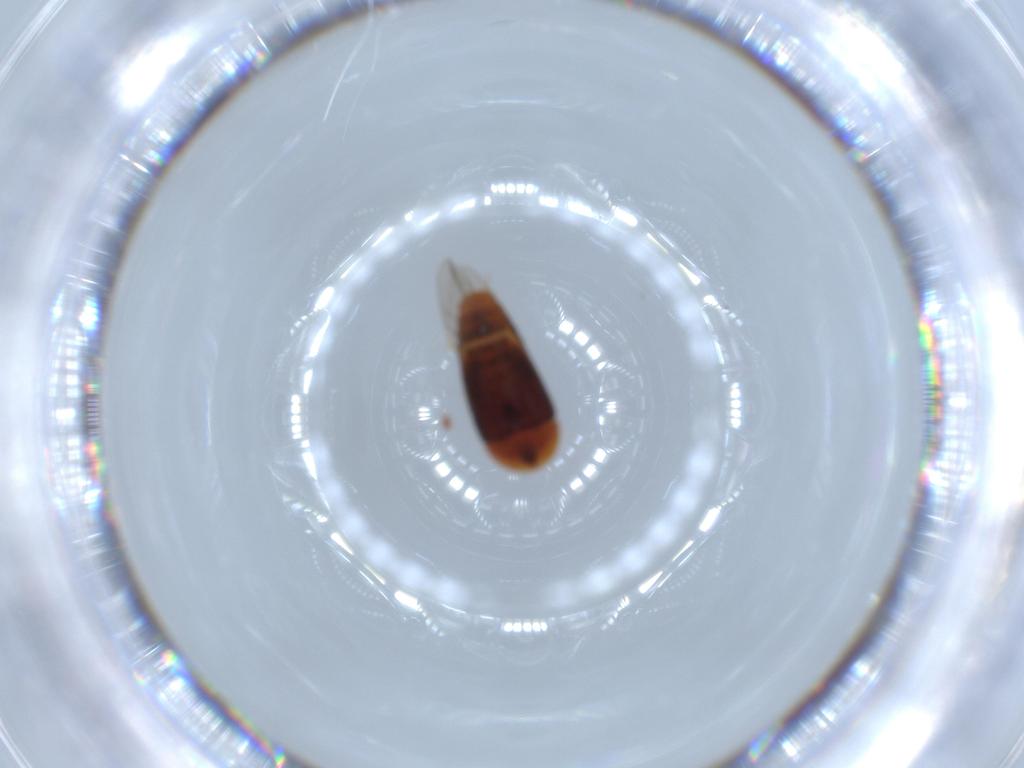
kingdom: Animalia
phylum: Arthropoda
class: Insecta
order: Coleoptera
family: Corylophidae
